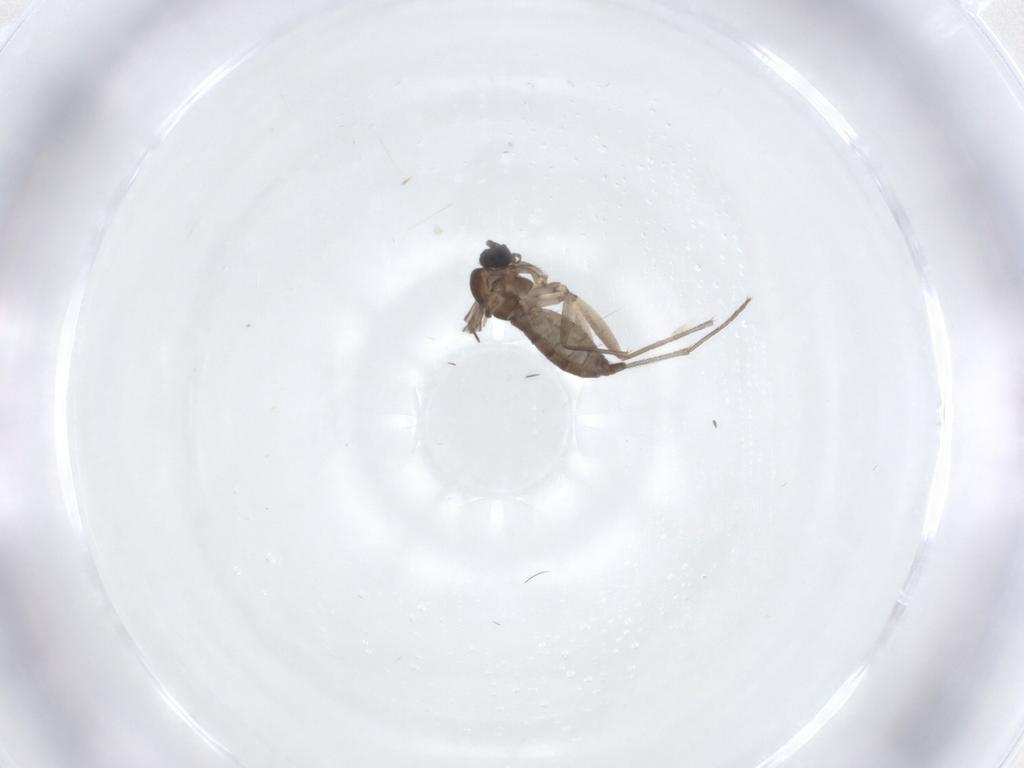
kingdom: Animalia
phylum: Arthropoda
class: Insecta
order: Diptera
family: Sciaridae
